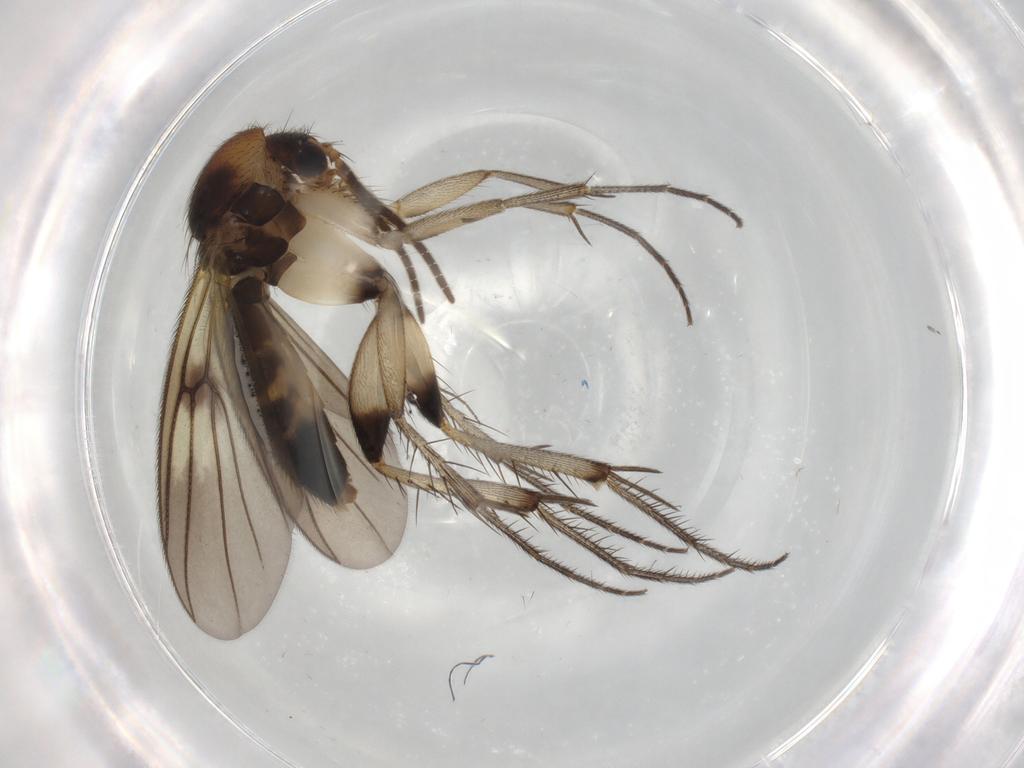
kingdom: Animalia
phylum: Arthropoda
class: Insecta
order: Diptera
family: Mycetophilidae
